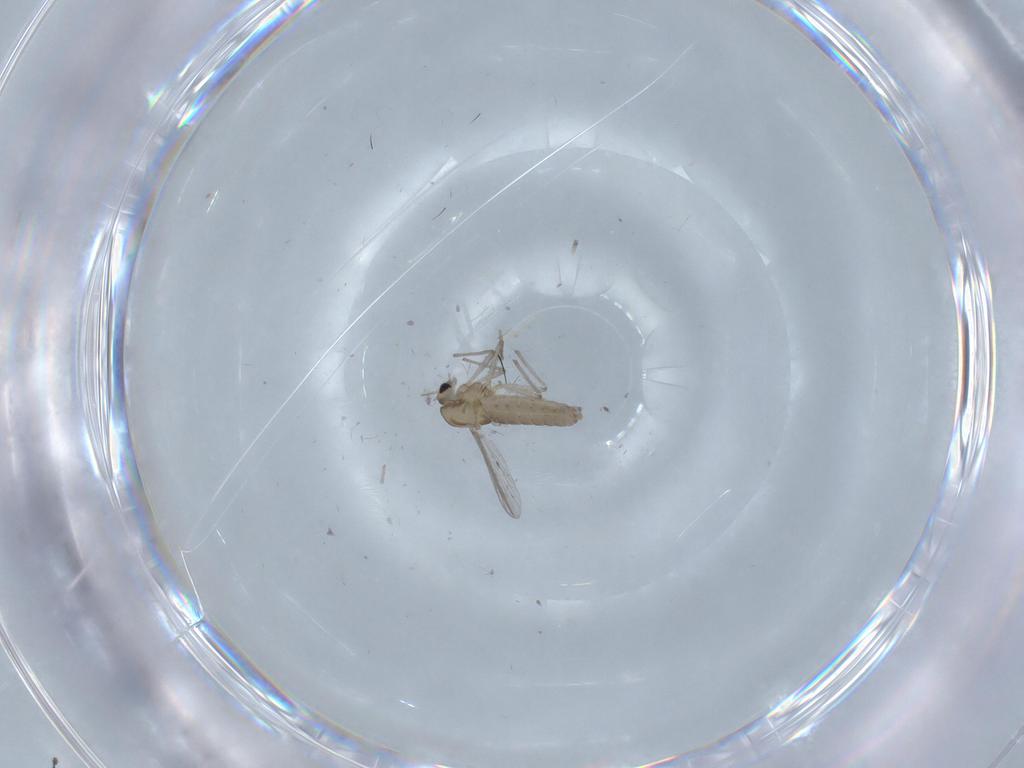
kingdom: Animalia
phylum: Arthropoda
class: Insecta
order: Diptera
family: Chironomidae
